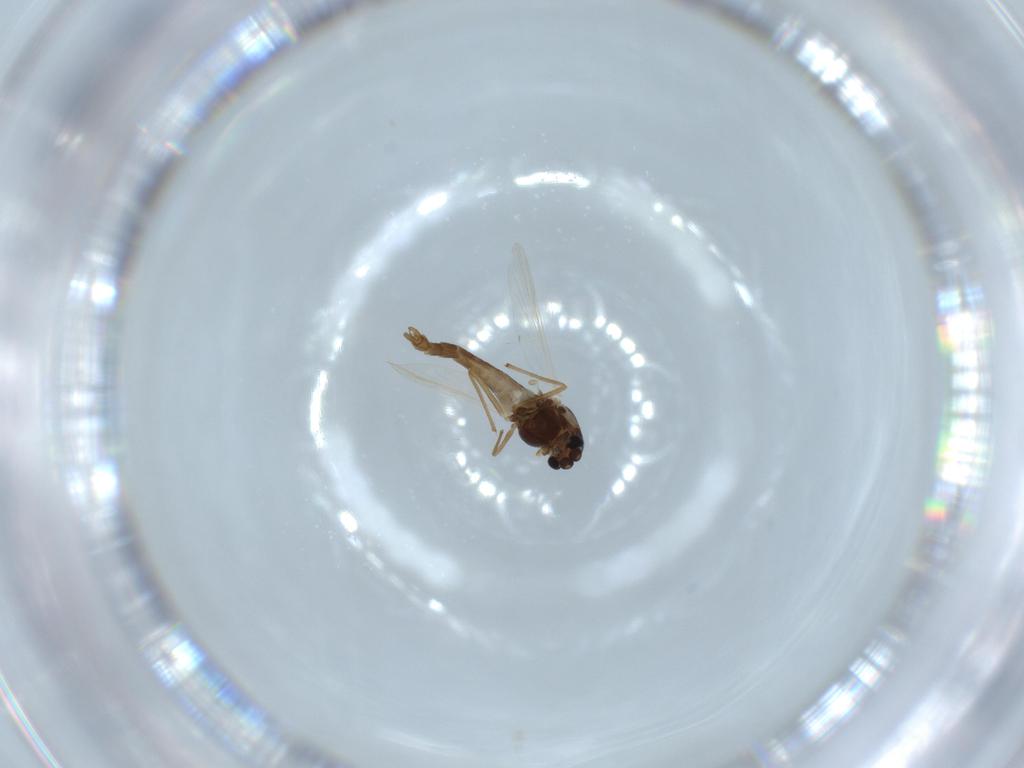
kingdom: Animalia
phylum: Arthropoda
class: Insecta
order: Diptera
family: Chironomidae
